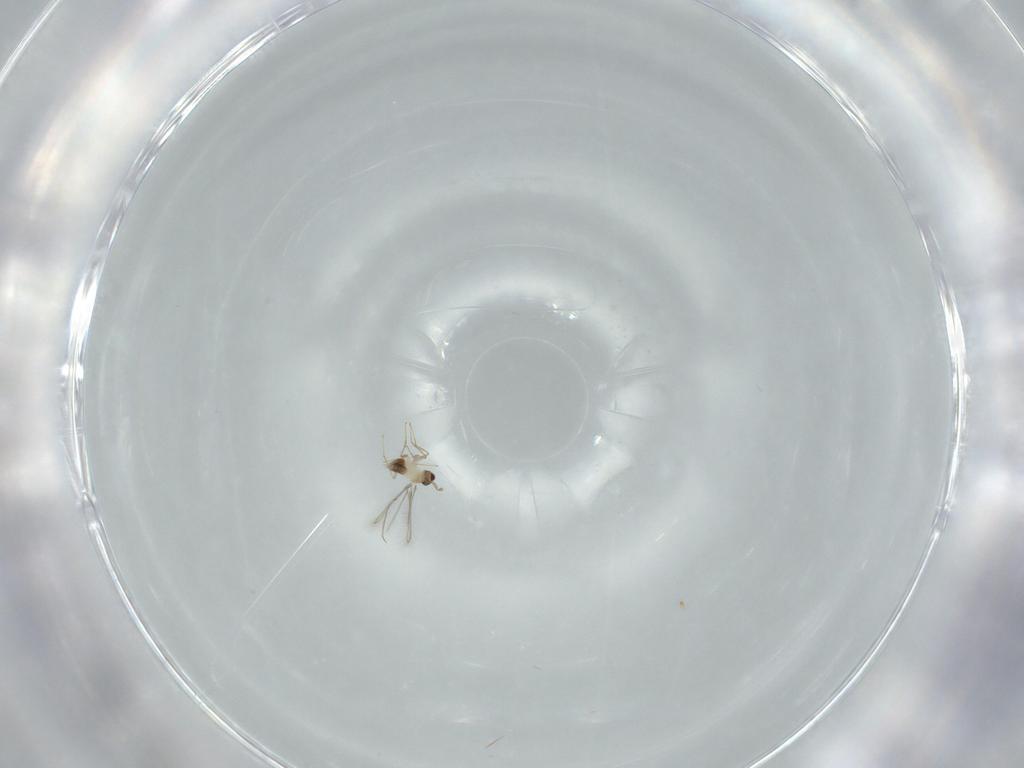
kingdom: Animalia
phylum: Arthropoda
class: Insecta
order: Hymenoptera
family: Mymaridae
